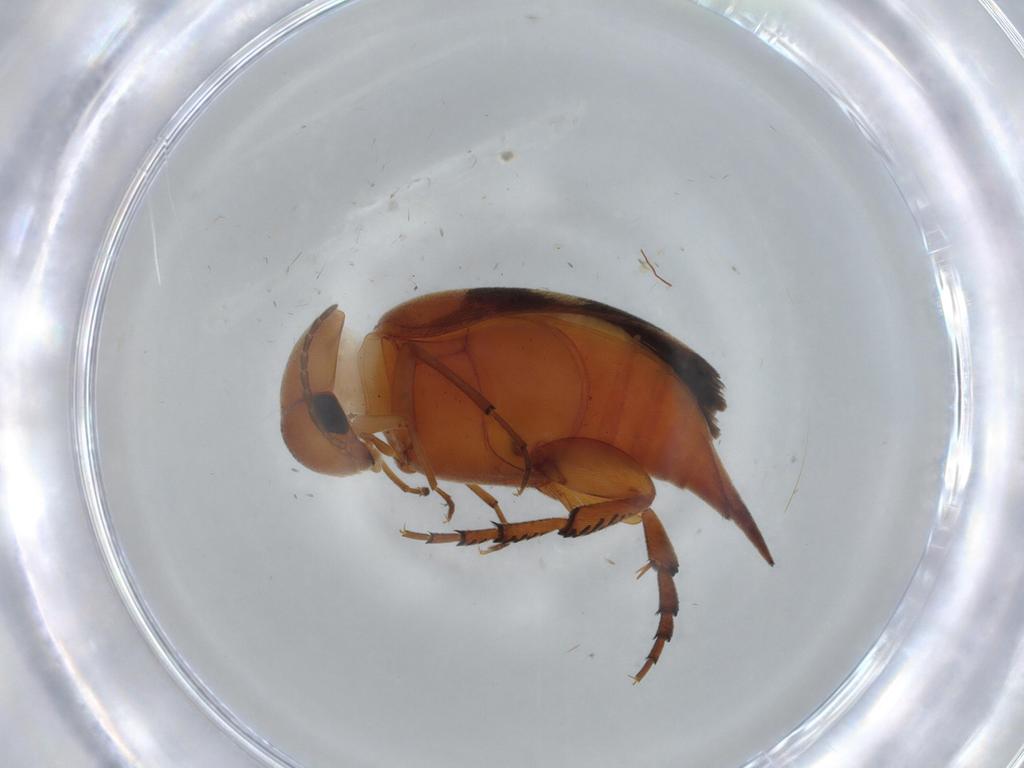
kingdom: Animalia
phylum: Arthropoda
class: Insecta
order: Coleoptera
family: Mordellidae
